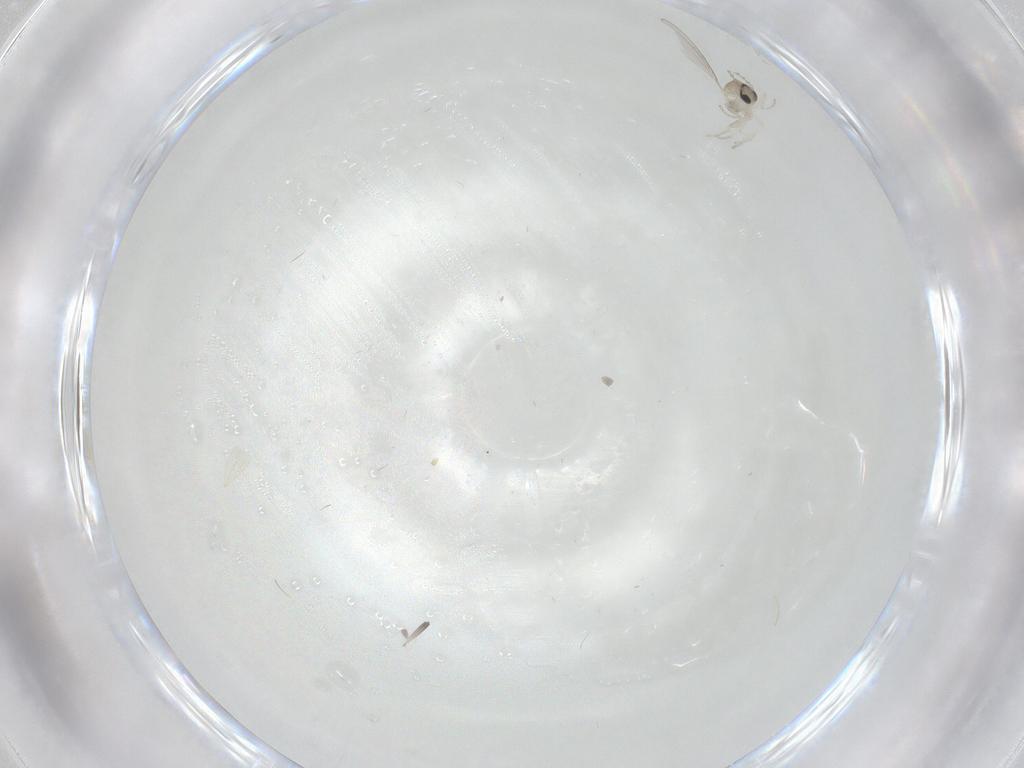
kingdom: Animalia
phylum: Arthropoda
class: Insecta
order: Diptera
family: Cecidomyiidae
